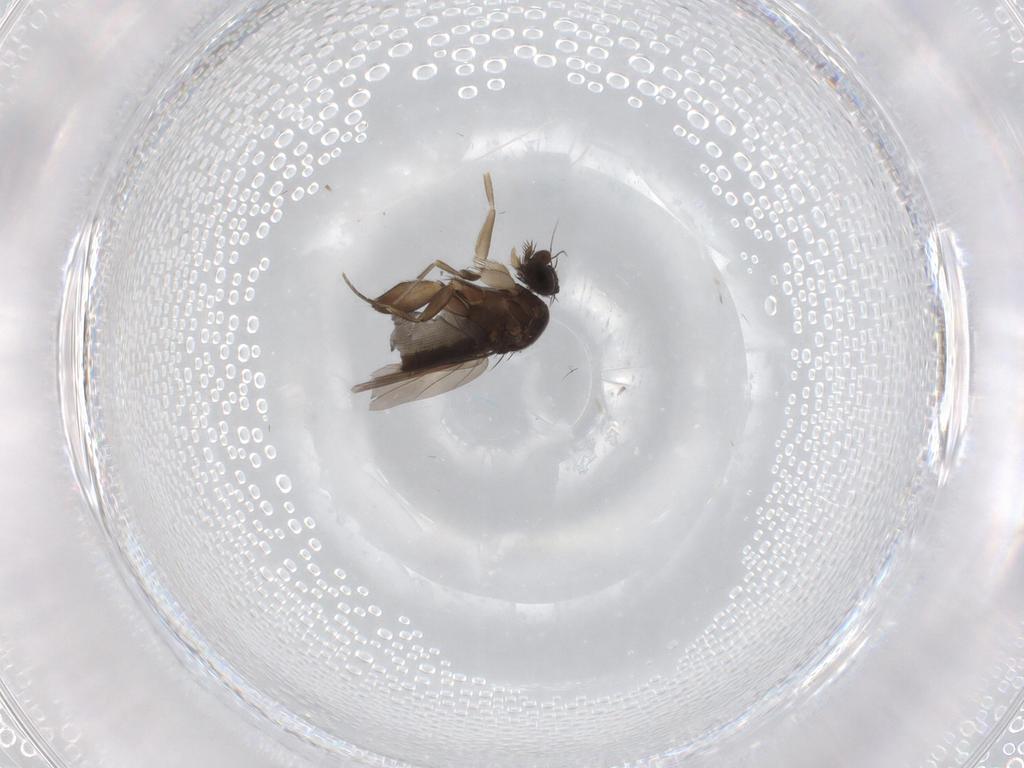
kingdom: Animalia
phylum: Arthropoda
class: Insecta
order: Diptera
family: Phoridae
